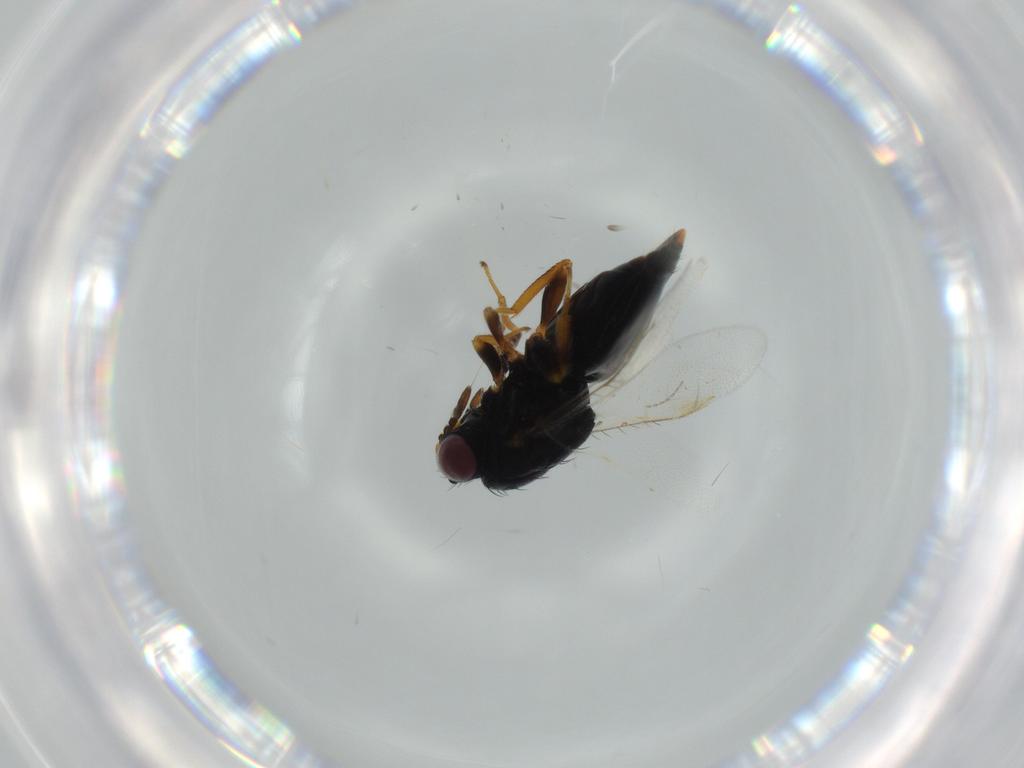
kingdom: Animalia
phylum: Arthropoda
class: Insecta
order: Hymenoptera
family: Pteromalidae
